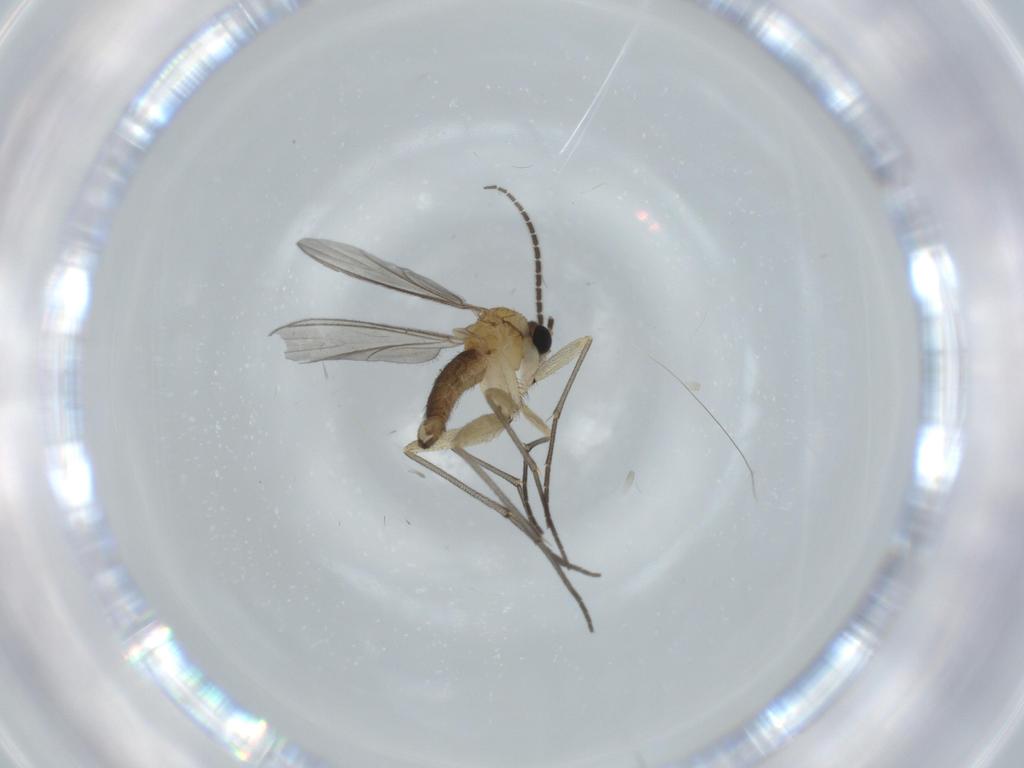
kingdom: Animalia
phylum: Arthropoda
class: Insecta
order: Diptera
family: Sciaridae
